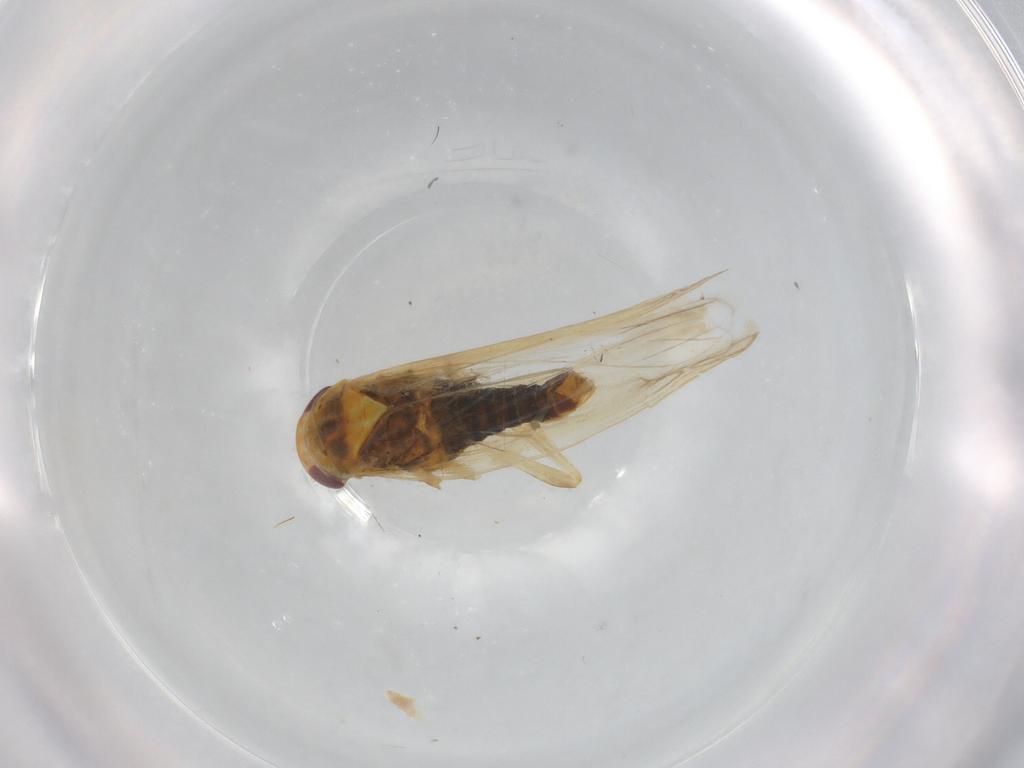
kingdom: Animalia
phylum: Arthropoda
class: Insecta
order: Hemiptera
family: Cicadellidae
